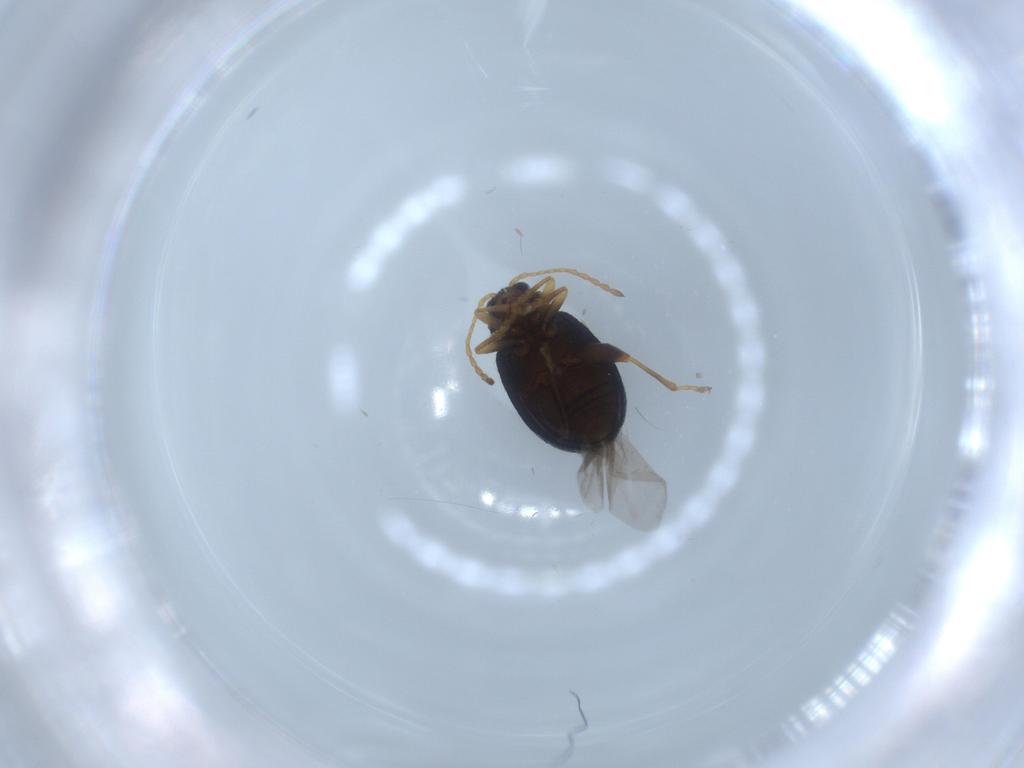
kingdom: Animalia
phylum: Arthropoda
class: Insecta
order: Coleoptera
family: Chrysomelidae
